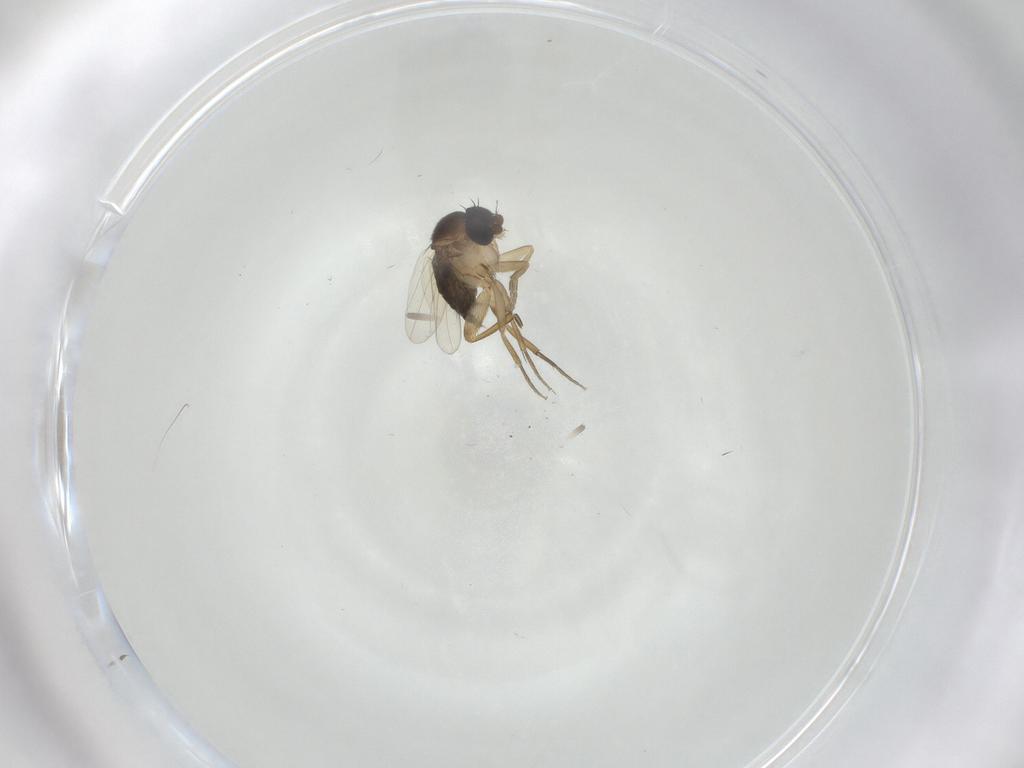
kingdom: Animalia
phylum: Arthropoda
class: Insecta
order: Diptera
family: Phoridae
